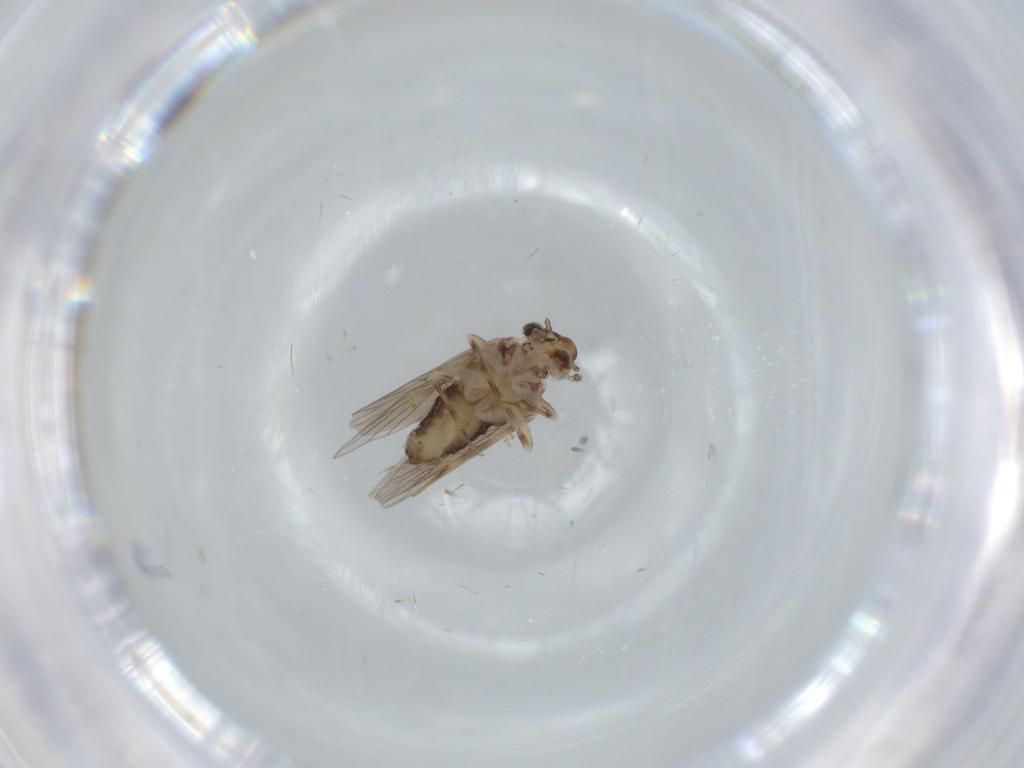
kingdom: Animalia
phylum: Arthropoda
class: Insecta
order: Psocodea
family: Lepidopsocidae
